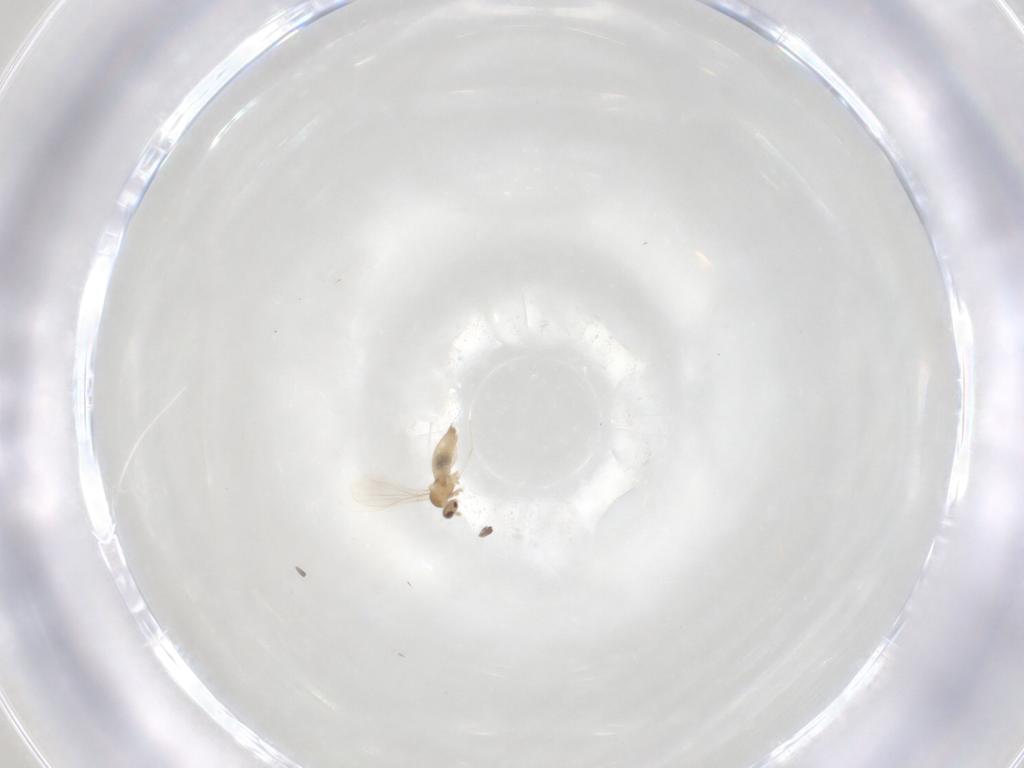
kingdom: Animalia
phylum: Arthropoda
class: Insecta
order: Diptera
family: Cecidomyiidae
